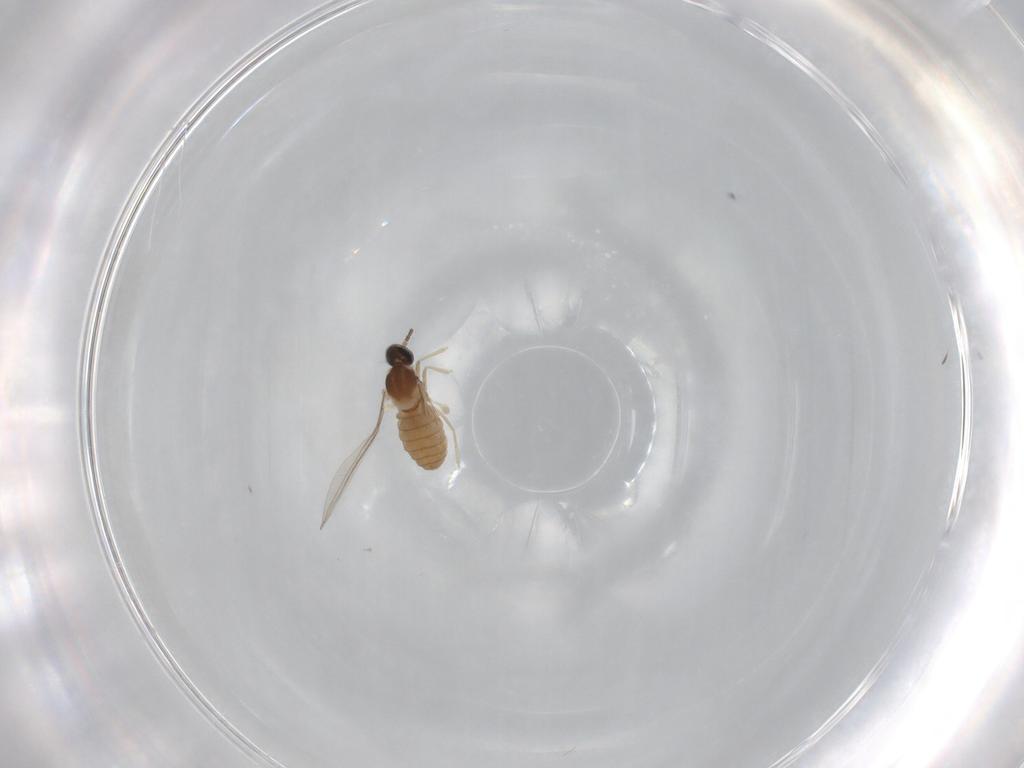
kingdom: Animalia
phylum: Arthropoda
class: Insecta
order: Diptera
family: Cecidomyiidae
